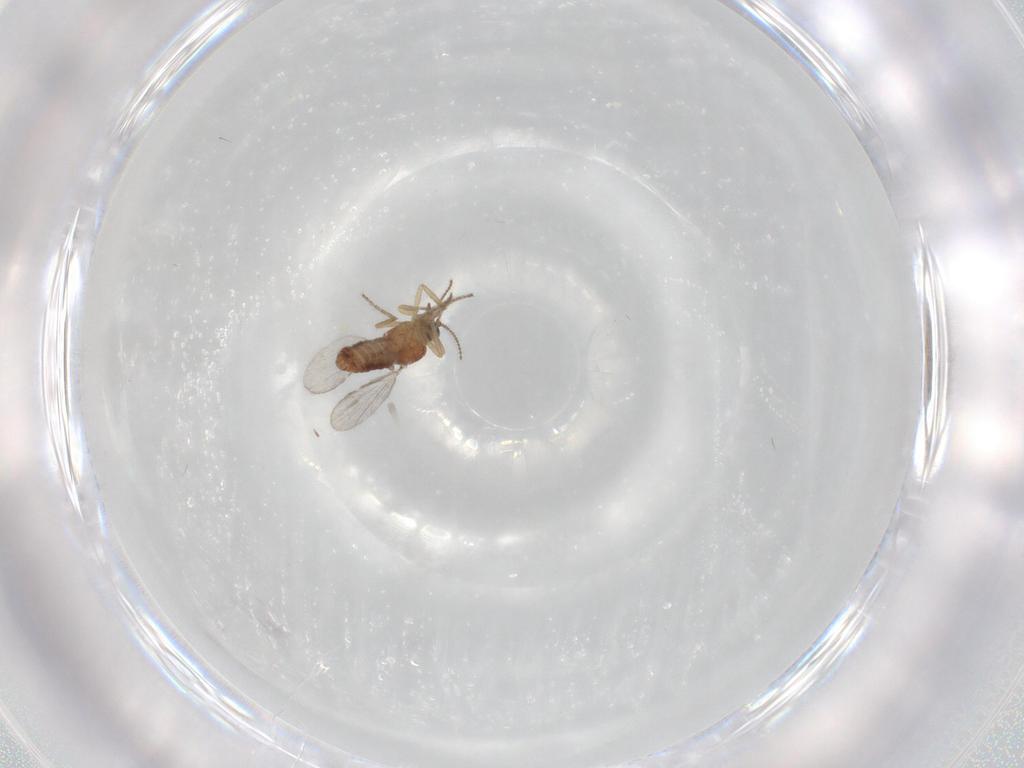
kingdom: Animalia
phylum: Arthropoda
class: Insecta
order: Diptera
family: Ceratopogonidae
